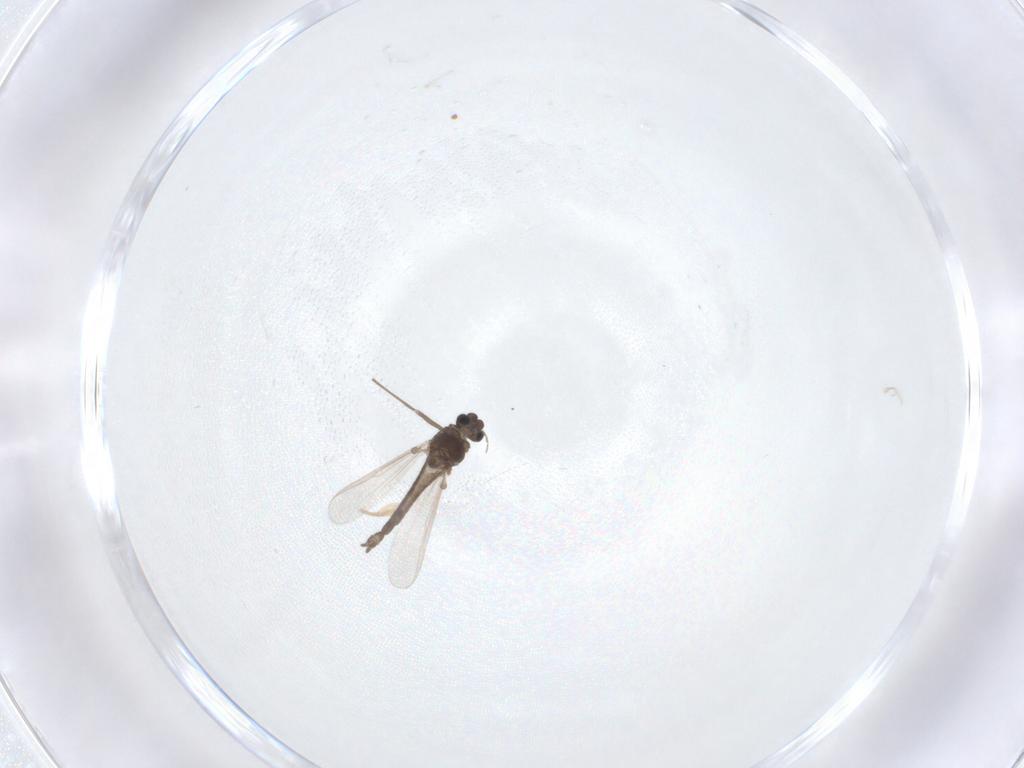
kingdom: Animalia
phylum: Arthropoda
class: Insecta
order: Diptera
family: Chironomidae
